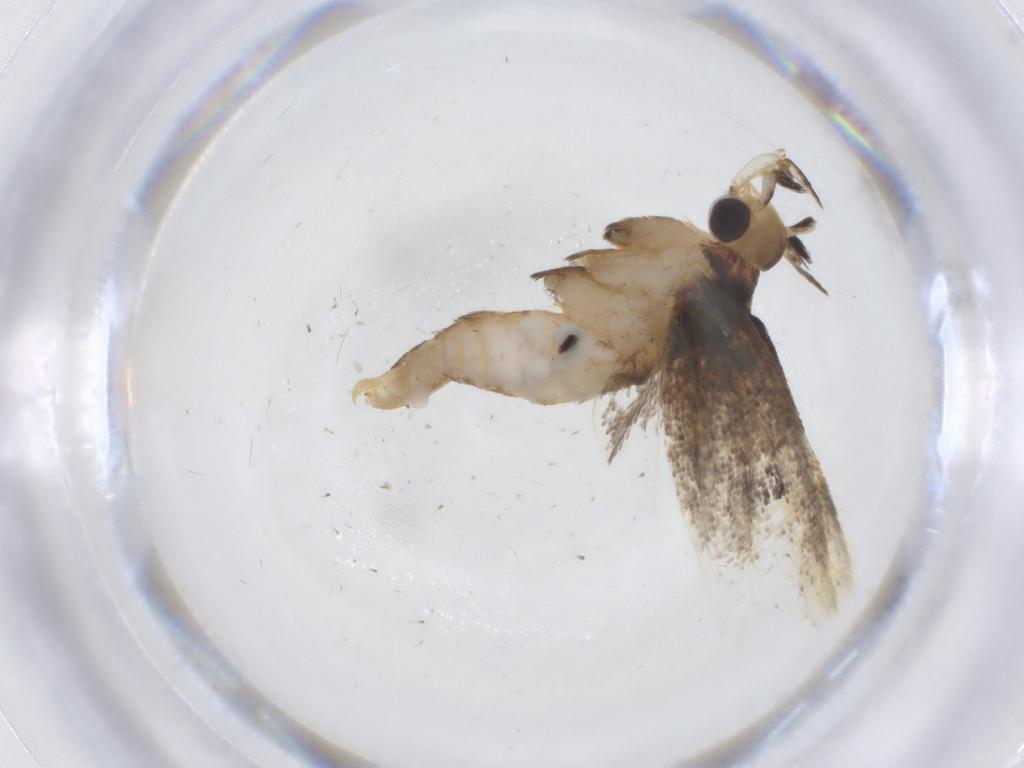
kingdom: Animalia
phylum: Arthropoda
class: Insecta
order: Lepidoptera
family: Lecithoceridae
